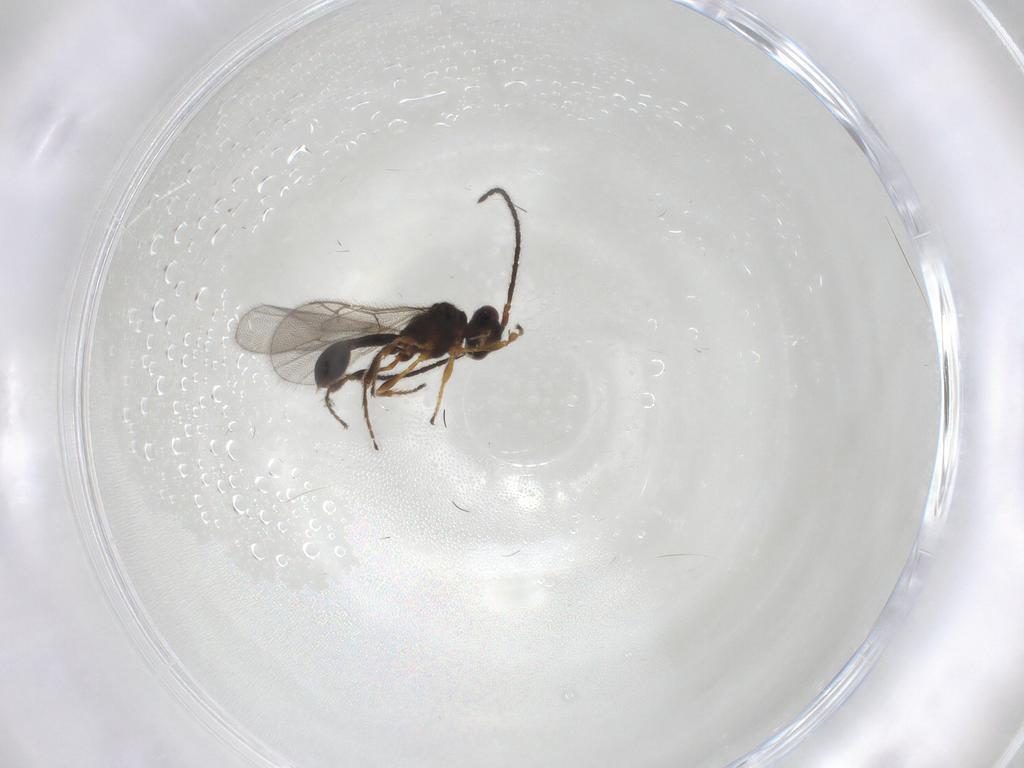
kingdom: Animalia
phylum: Arthropoda
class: Insecta
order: Hymenoptera
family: Diapriidae
